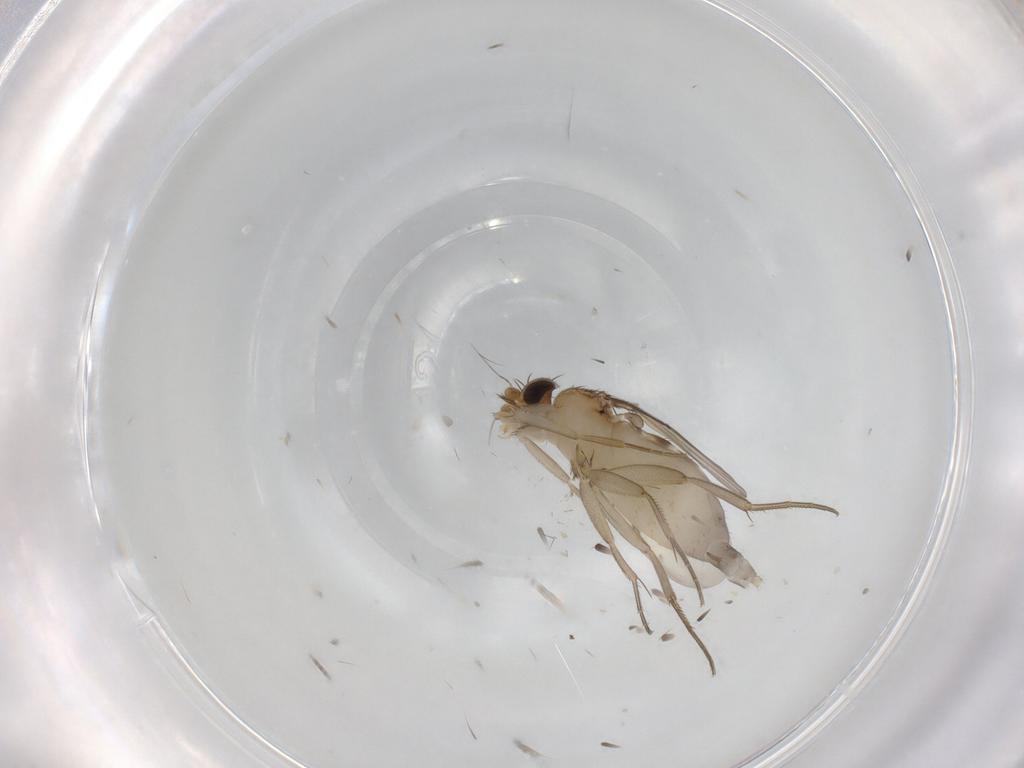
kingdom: Animalia
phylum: Arthropoda
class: Insecta
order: Diptera
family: Phoridae
